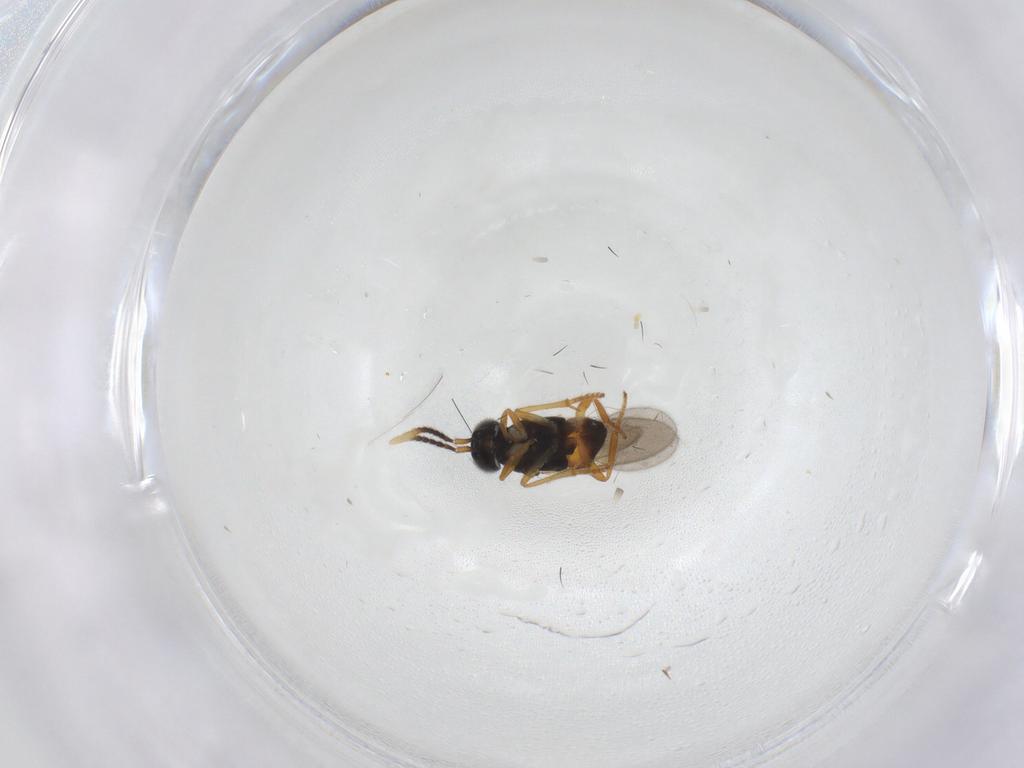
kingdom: Animalia
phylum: Arthropoda
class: Insecta
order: Hymenoptera
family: Encyrtidae
